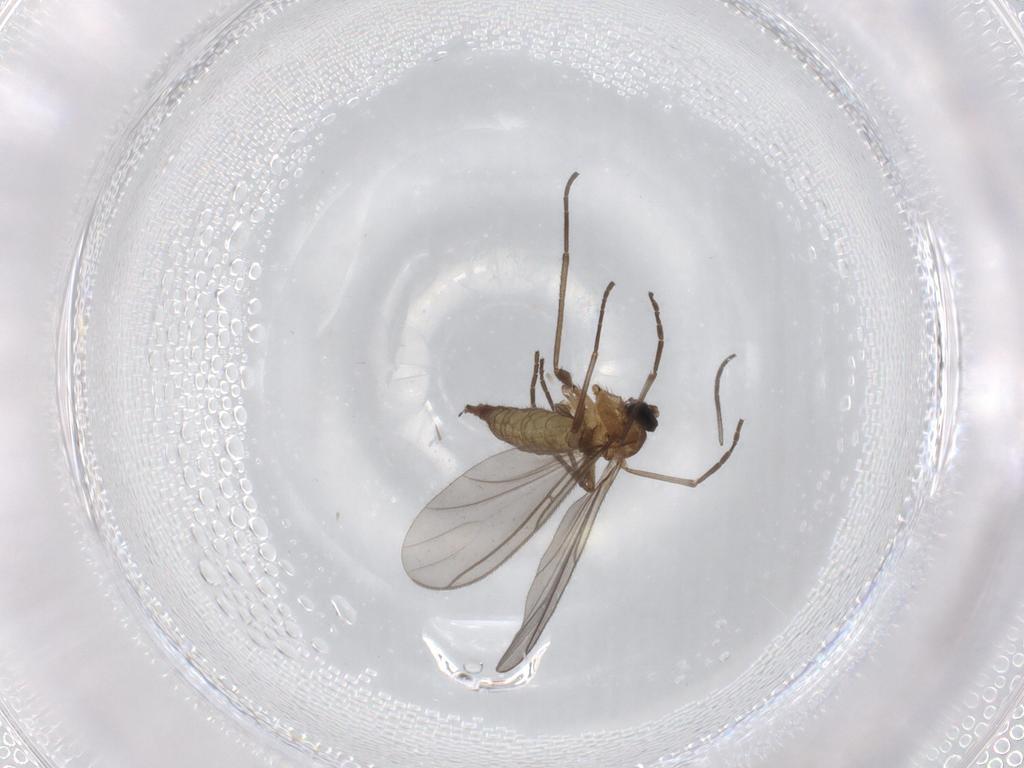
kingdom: Animalia
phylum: Arthropoda
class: Insecta
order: Diptera
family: Sciaridae
